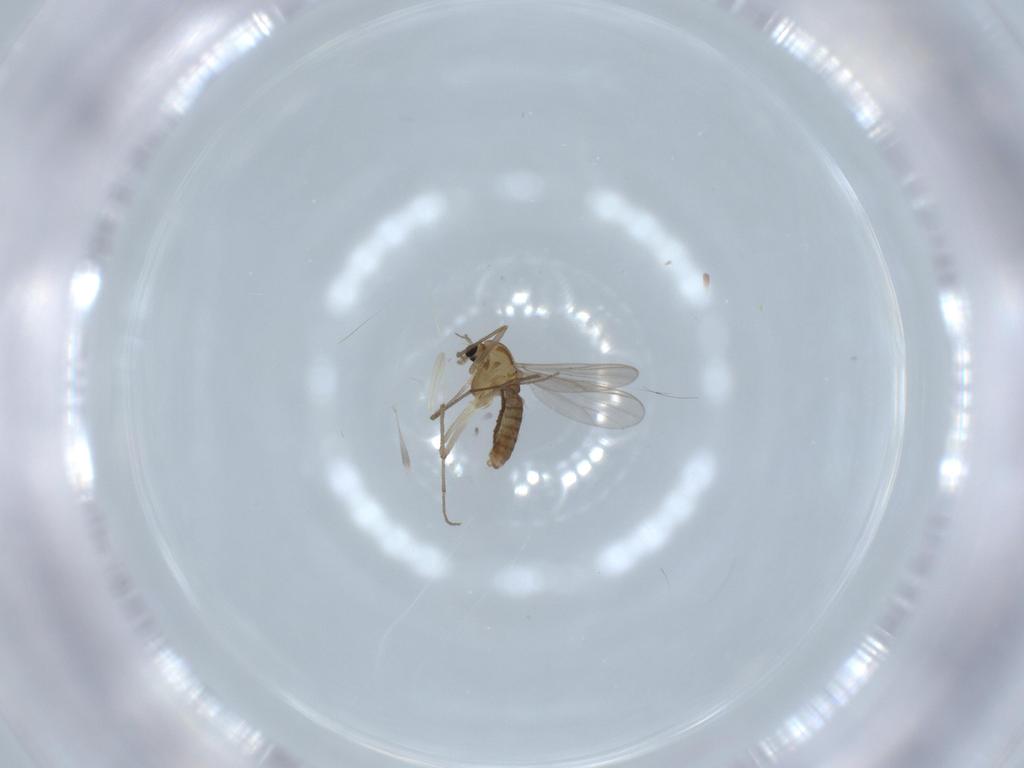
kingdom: Animalia
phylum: Arthropoda
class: Insecta
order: Diptera
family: Chironomidae
